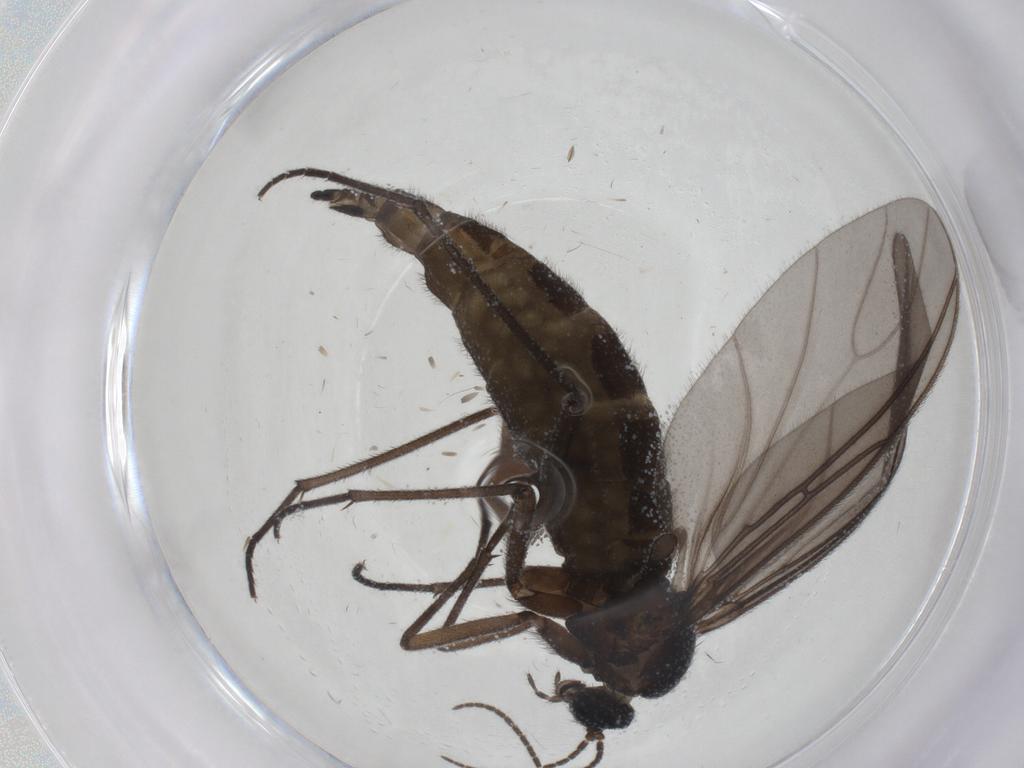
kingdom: Animalia
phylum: Arthropoda
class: Insecta
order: Diptera
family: Sciaridae
